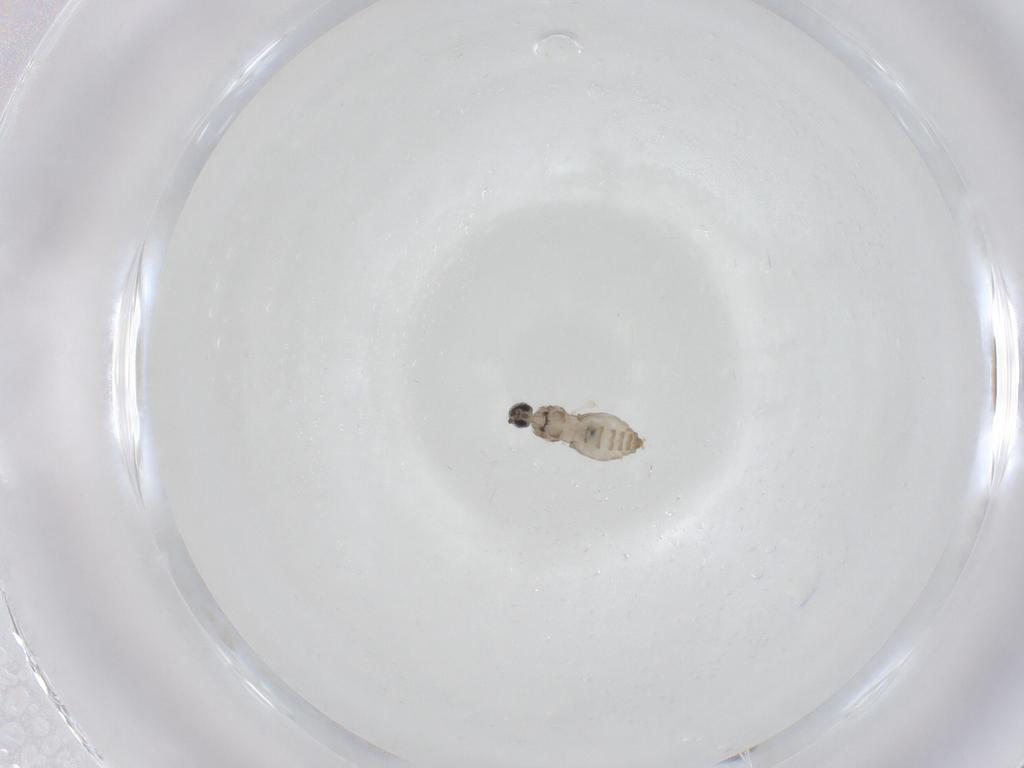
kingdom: Animalia
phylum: Arthropoda
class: Insecta
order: Diptera
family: Cecidomyiidae
